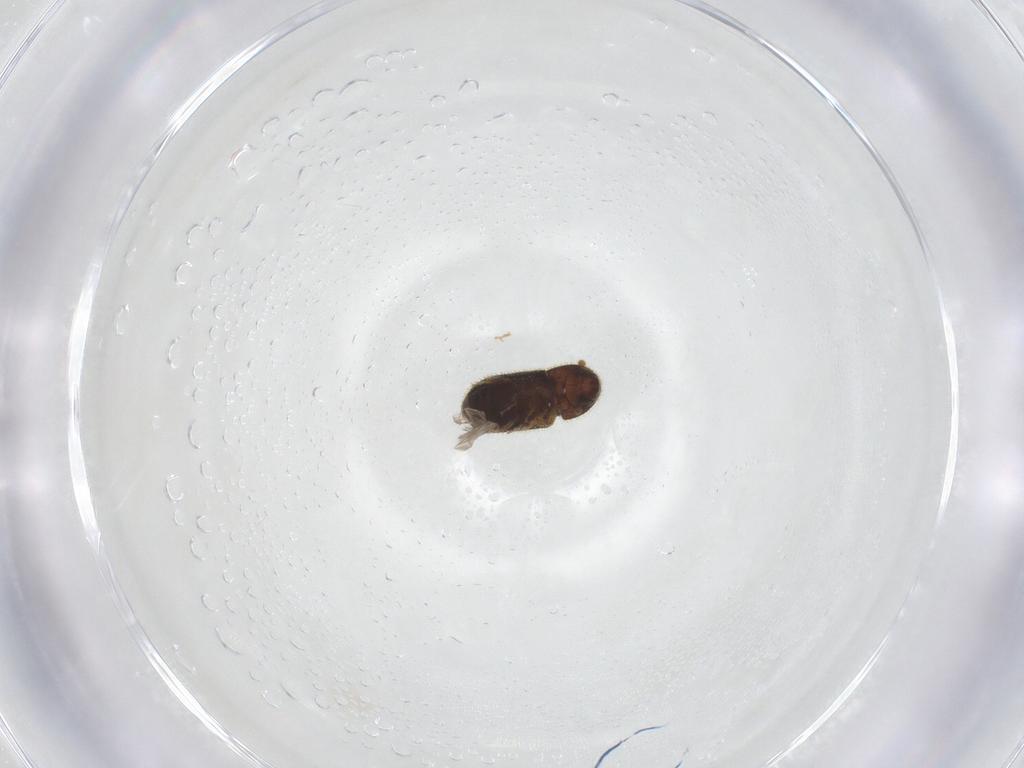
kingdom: Animalia
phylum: Arthropoda
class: Insecta
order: Coleoptera
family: Curculionidae
